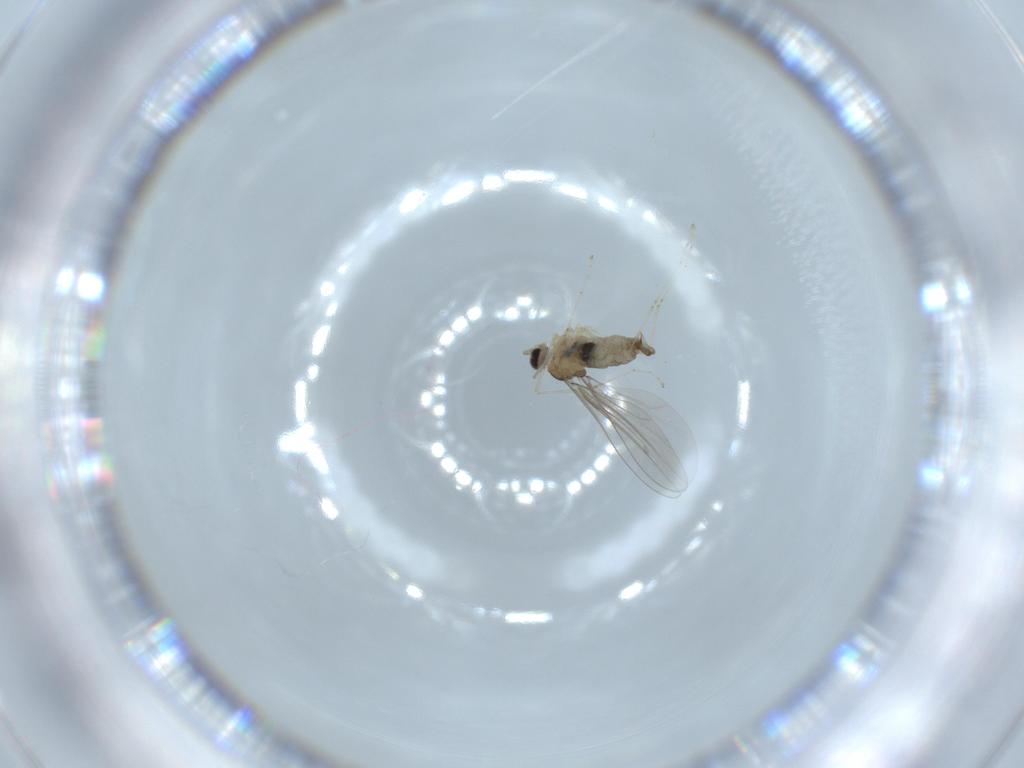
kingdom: Animalia
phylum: Arthropoda
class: Insecta
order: Diptera
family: Cecidomyiidae
